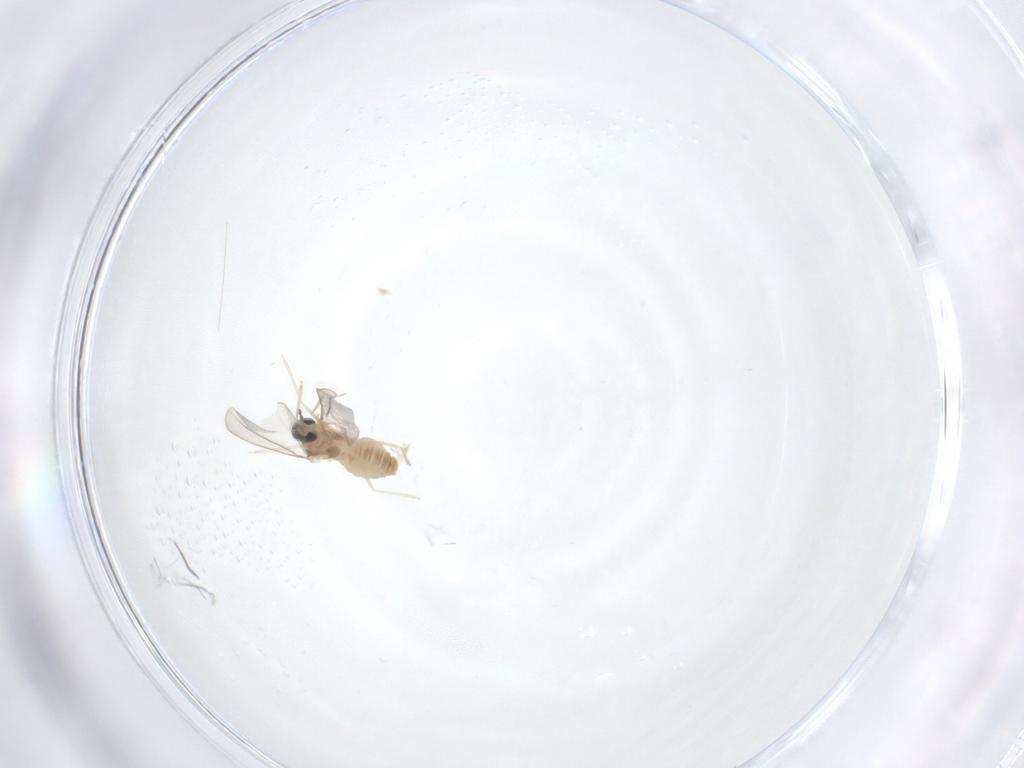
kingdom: Animalia
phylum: Arthropoda
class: Insecta
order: Diptera
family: Cecidomyiidae
